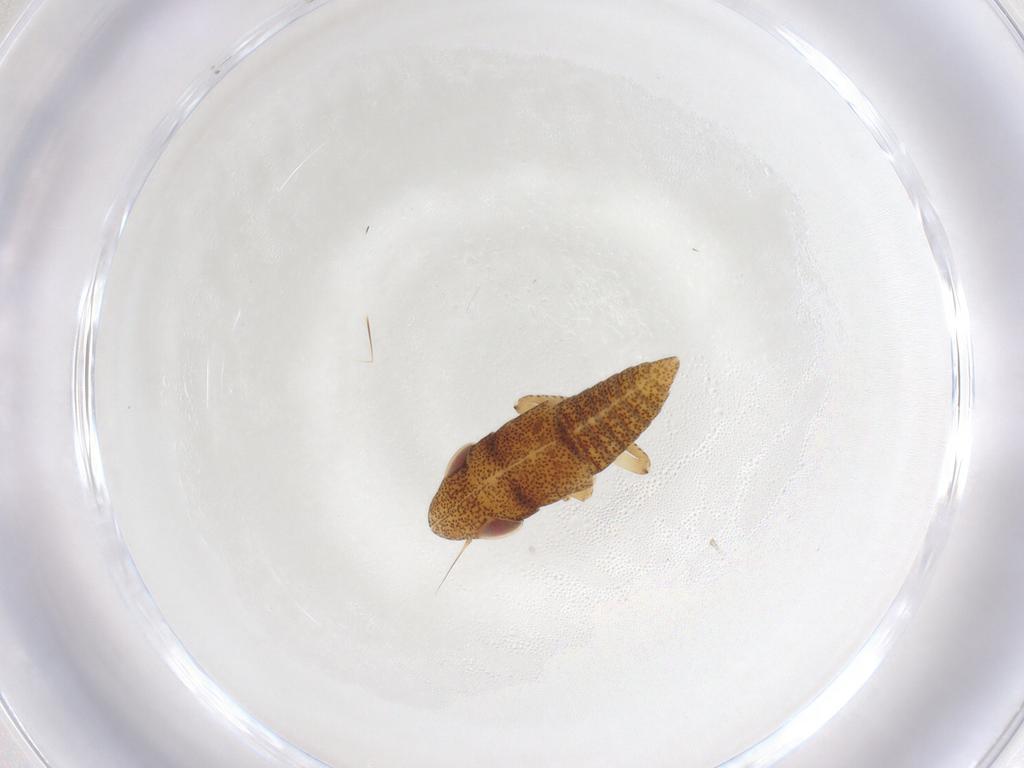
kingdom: Animalia
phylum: Arthropoda
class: Insecta
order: Hemiptera
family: Cicadellidae
